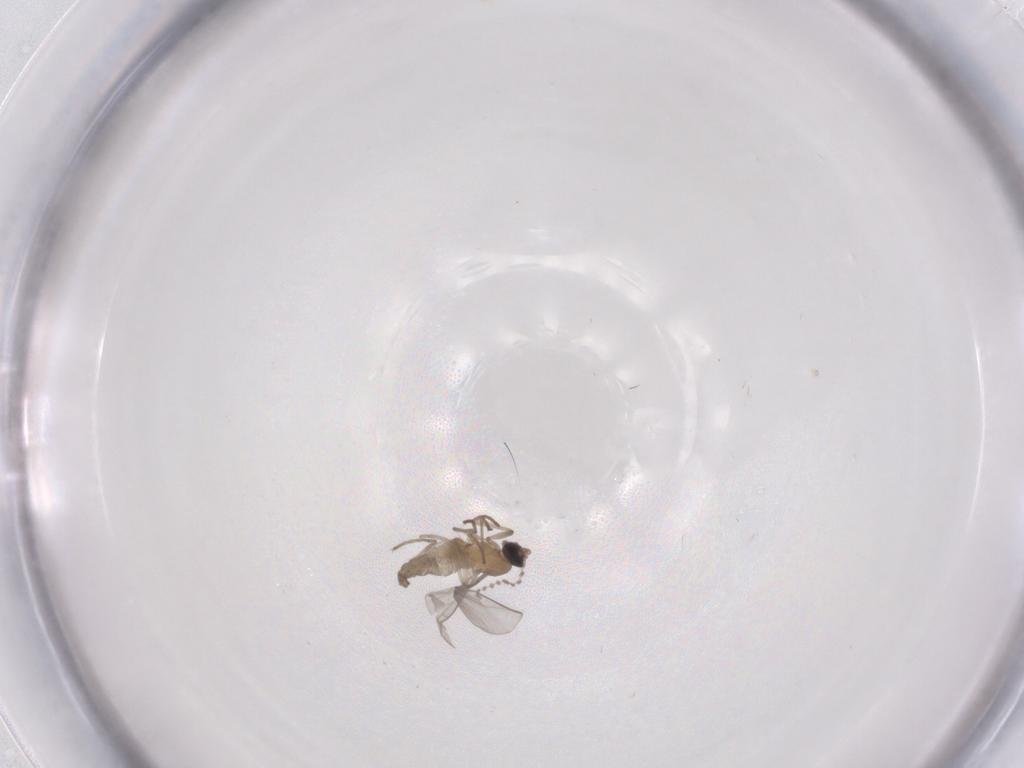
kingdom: Animalia
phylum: Arthropoda
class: Insecta
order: Diptera
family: Cecidomyiidae
